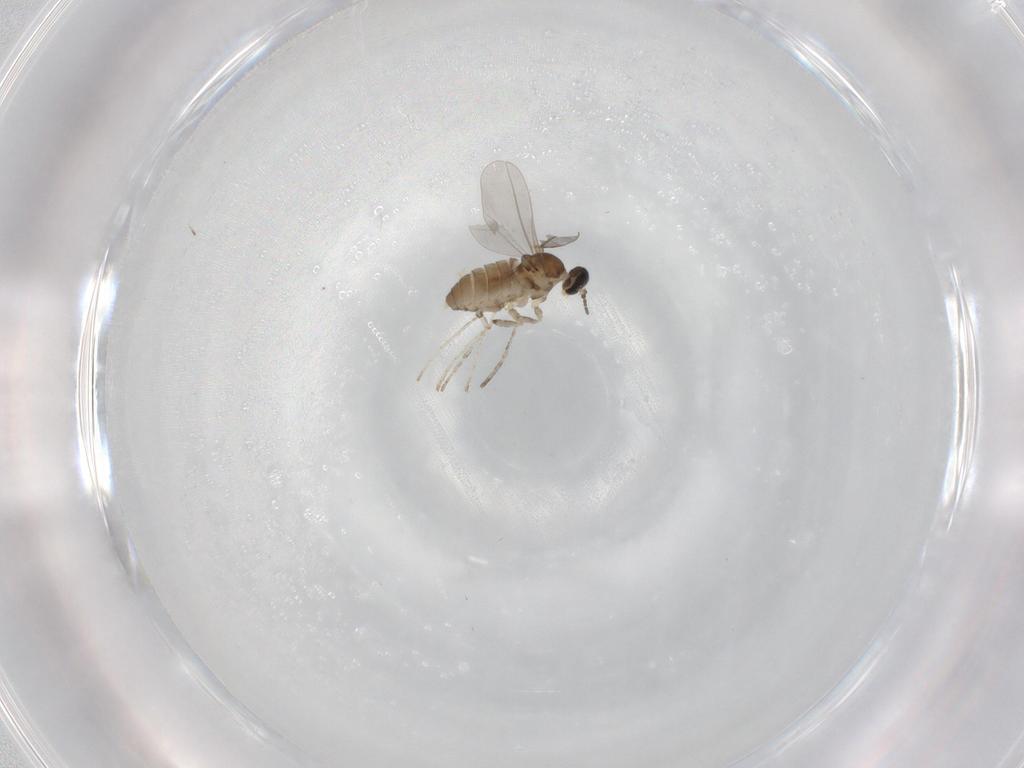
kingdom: Animalia
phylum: Arthropoda
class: Insecta
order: Diptera
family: Cecidomyiidae
